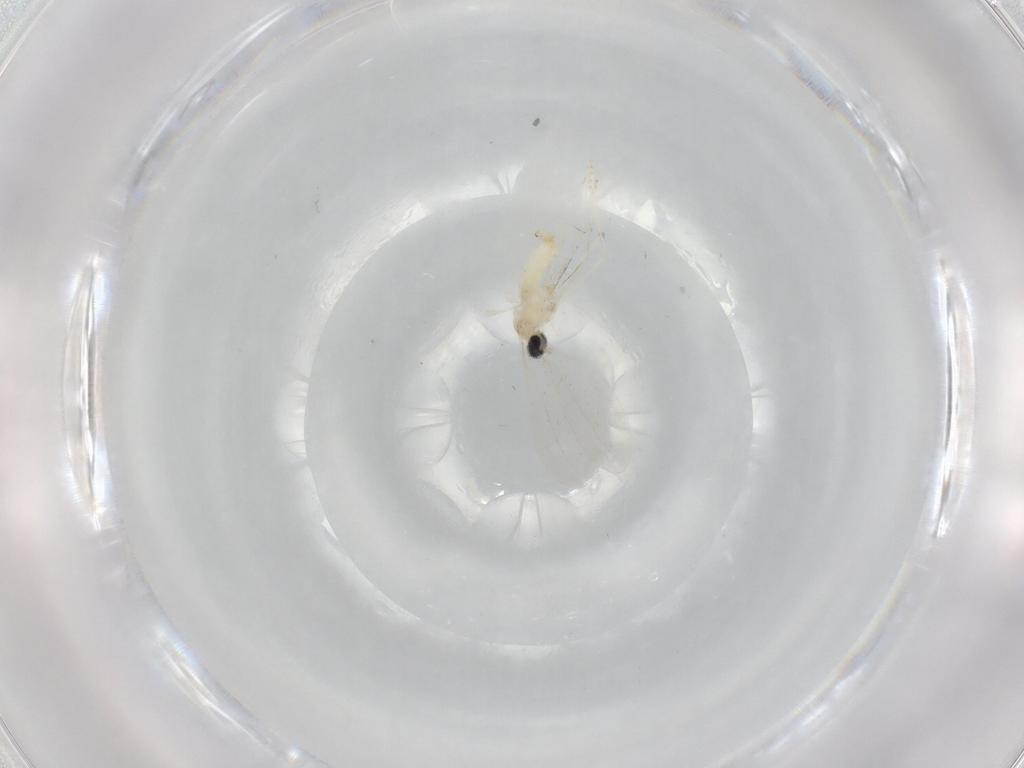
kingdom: Animalia
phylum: Arthropoda
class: Insecta
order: Diptera
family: Cecidomyiidae
